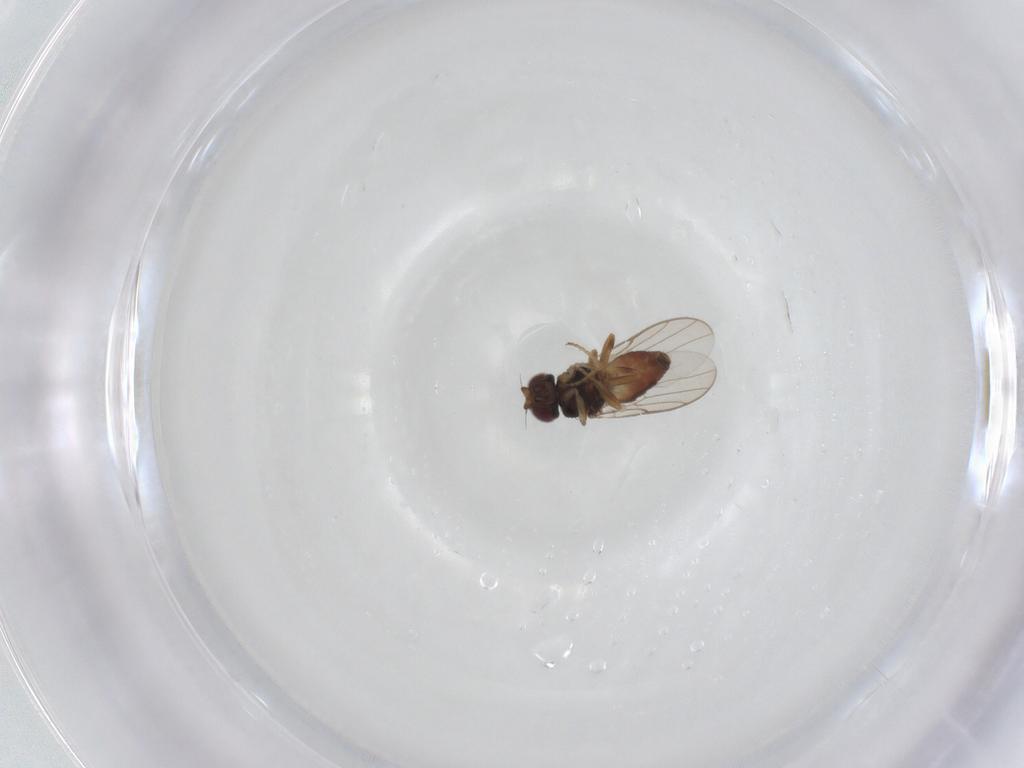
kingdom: Animalia
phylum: Arthropoda
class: Insecta
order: Diptera
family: Chloropidae
